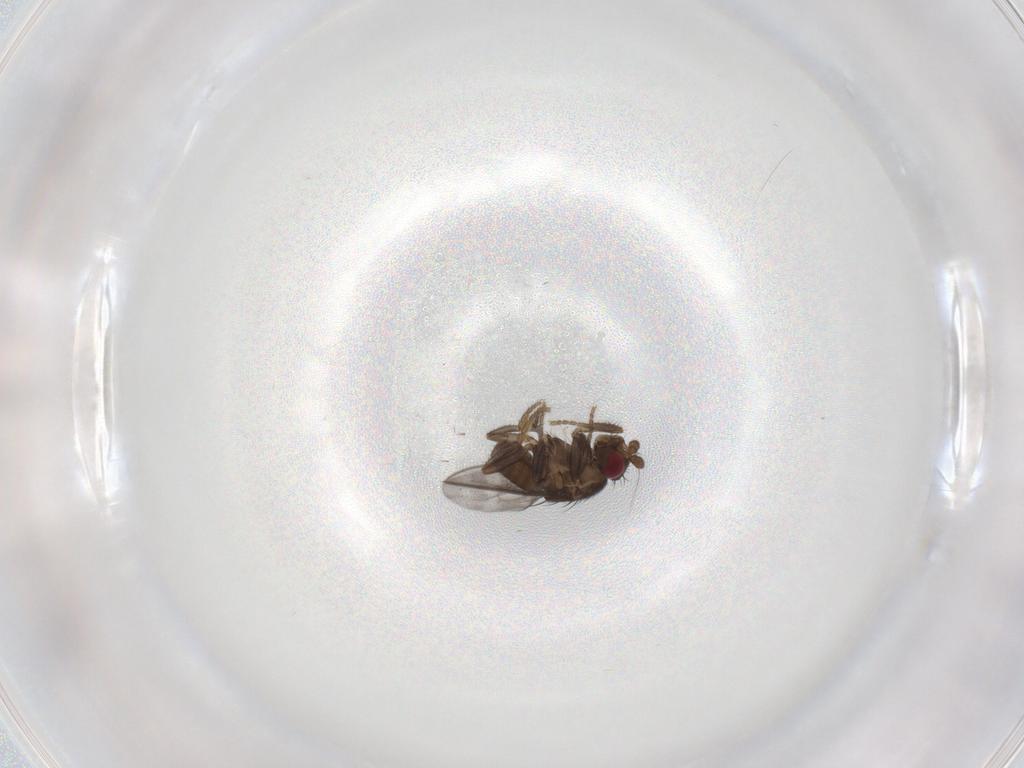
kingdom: Animalia
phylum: Arthropoda
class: Insecta
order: Diptera
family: Sphaeroceridae
